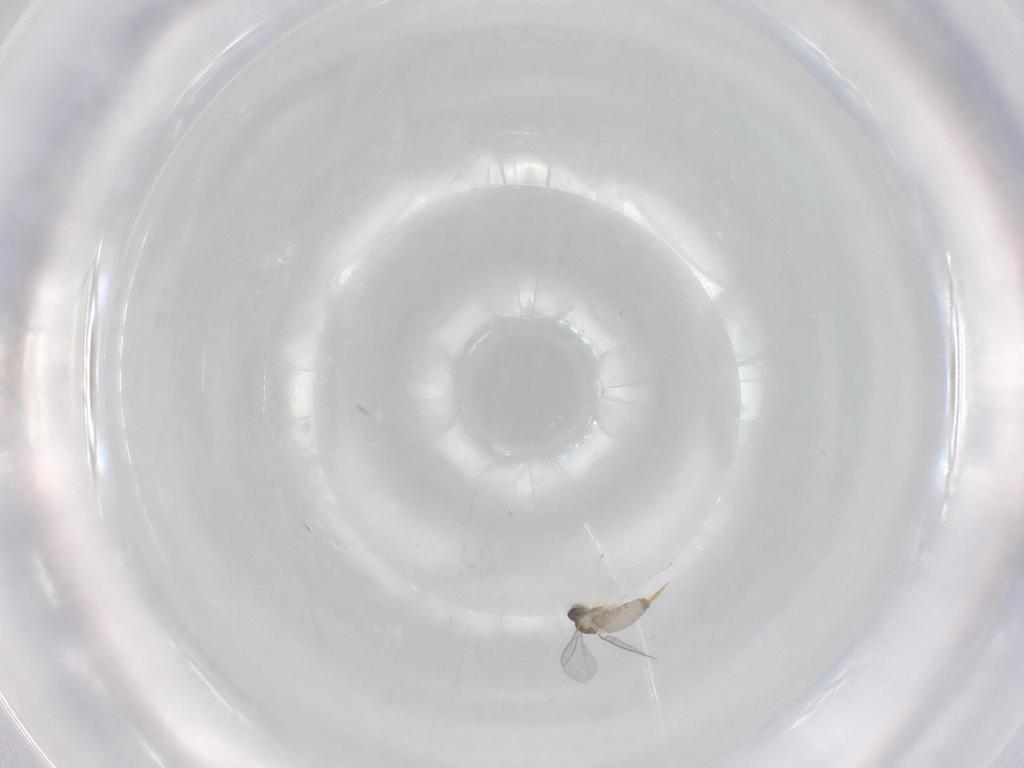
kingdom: Animalia
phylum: Arthropoda
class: Insecta
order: Diptera
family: Cecidomyiidae
